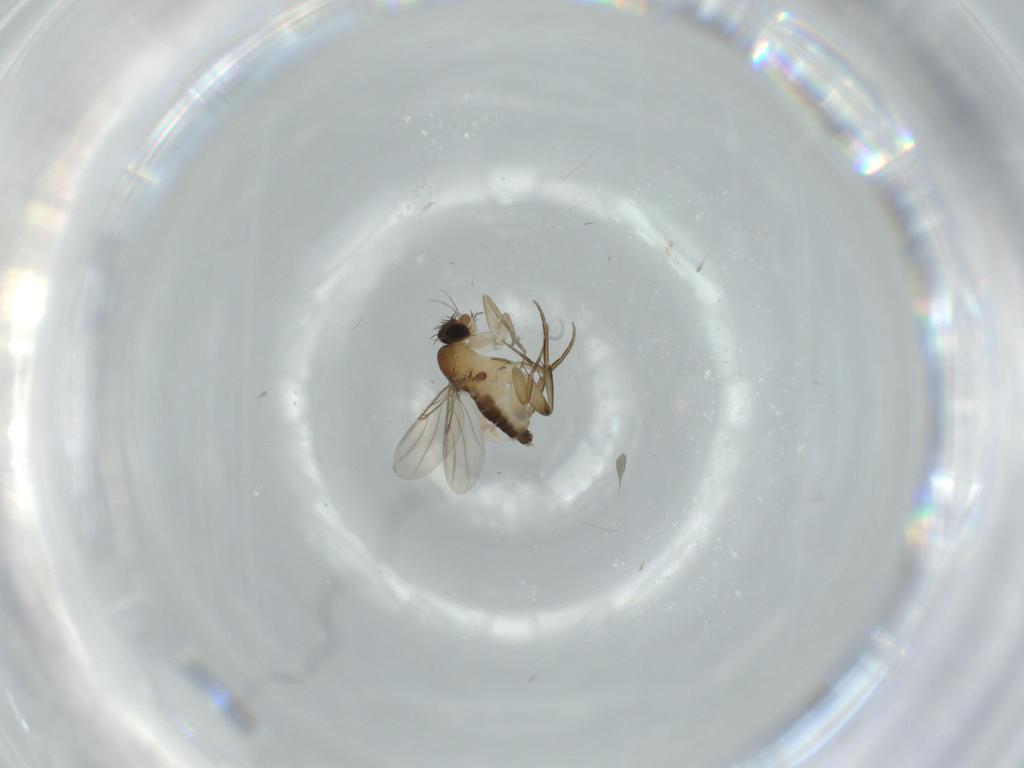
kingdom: Animalia
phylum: Arthropoda
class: Insecta
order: Diptera
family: Phoridae
